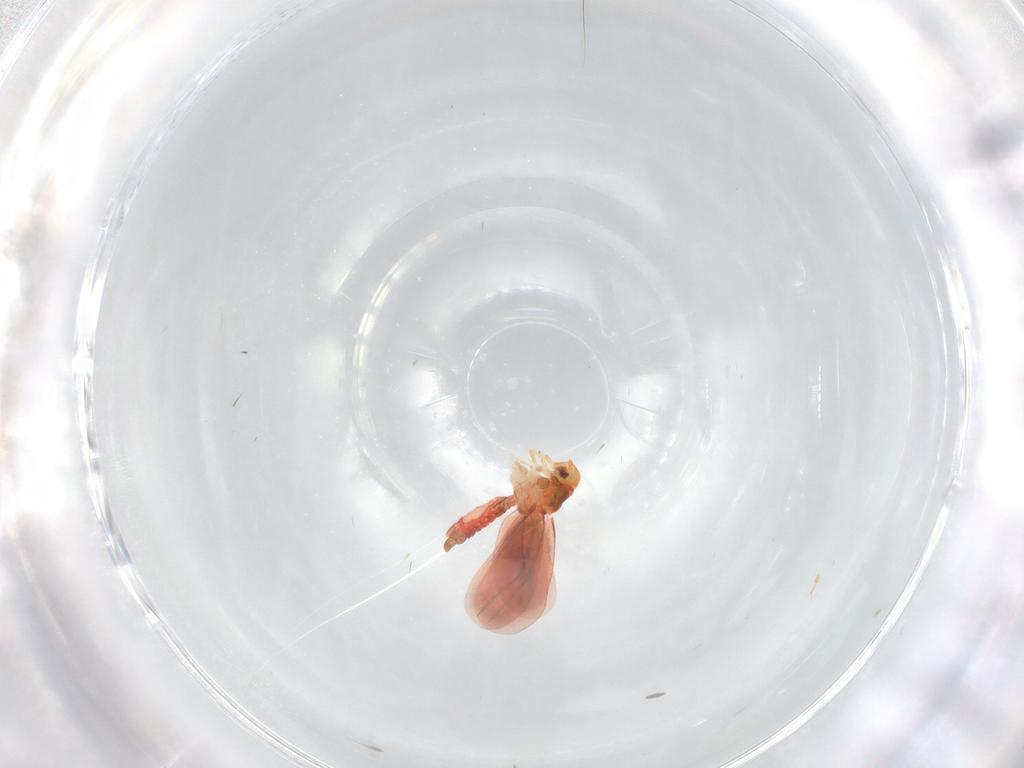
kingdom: Animalia
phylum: Arthropoda
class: Insecta
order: Hemiptera
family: Aleyrodidae
